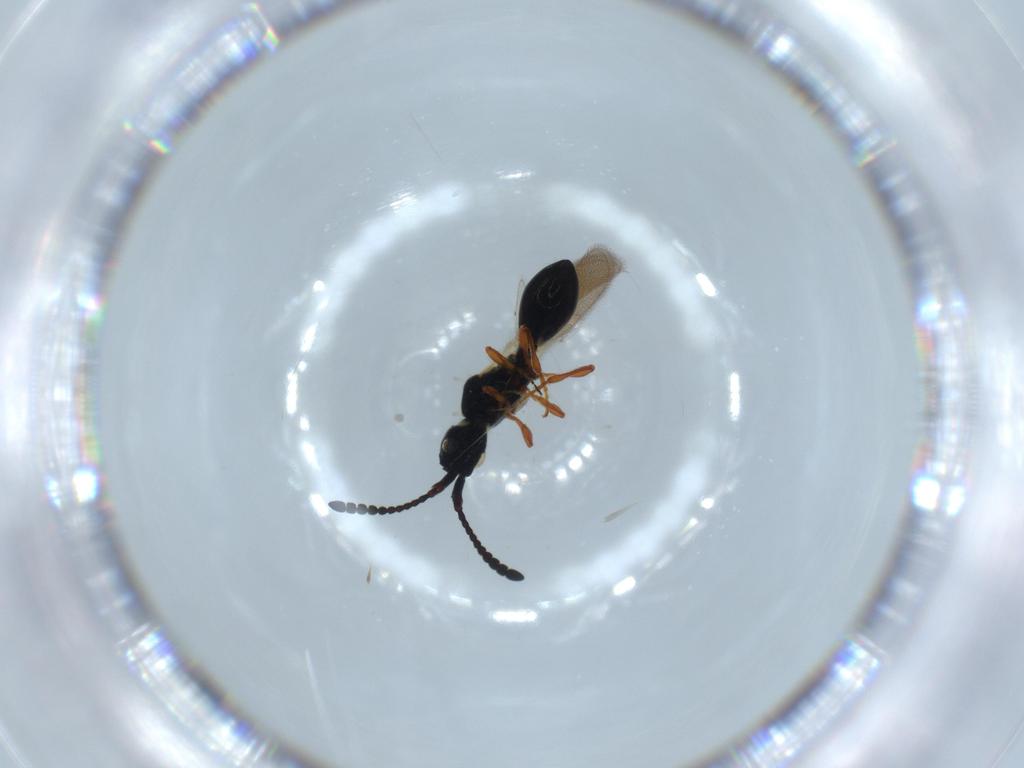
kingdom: Animalia
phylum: Arthropoda
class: Insecta
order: Hymenoptera
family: Diapriidae
